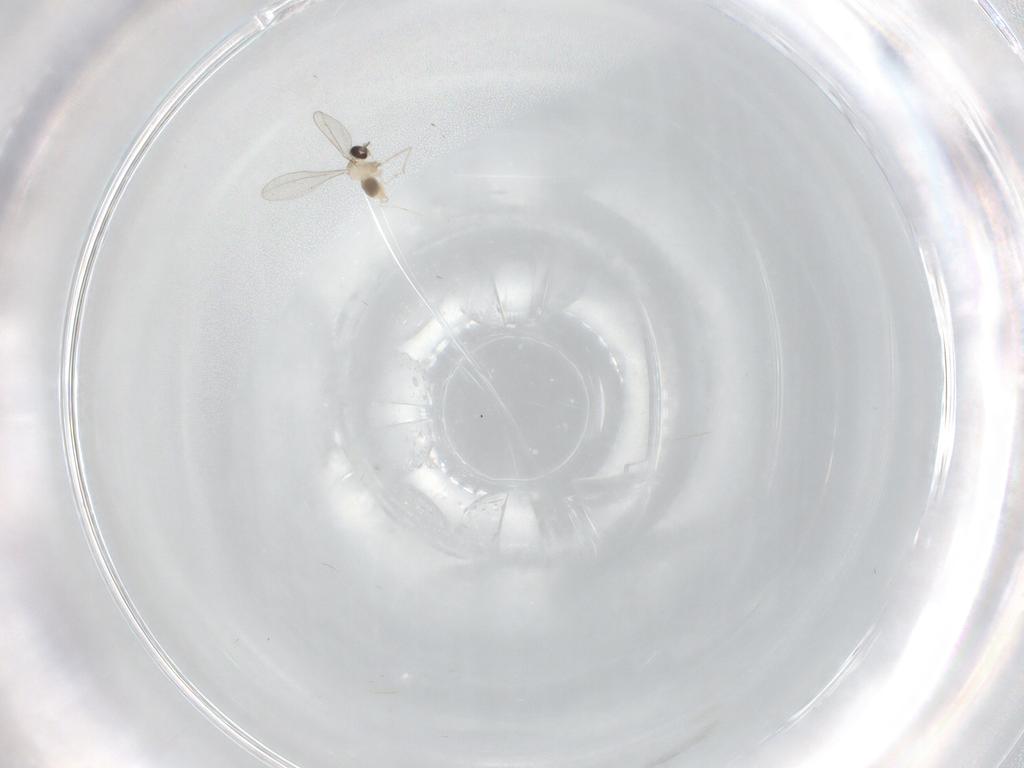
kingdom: Animalia
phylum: Arthropoda
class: Insecta
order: Diptera
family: Cecidomyiidae
